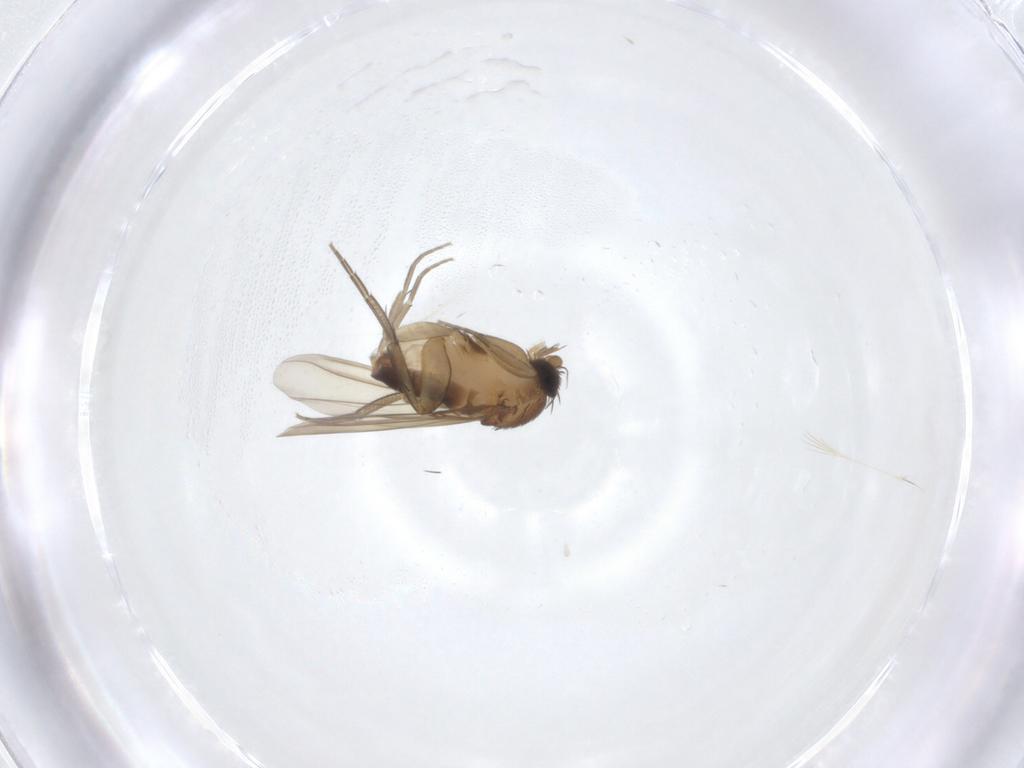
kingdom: Animalia
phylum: Arthropoda
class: Insecta
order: Diptera
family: Phoridae
